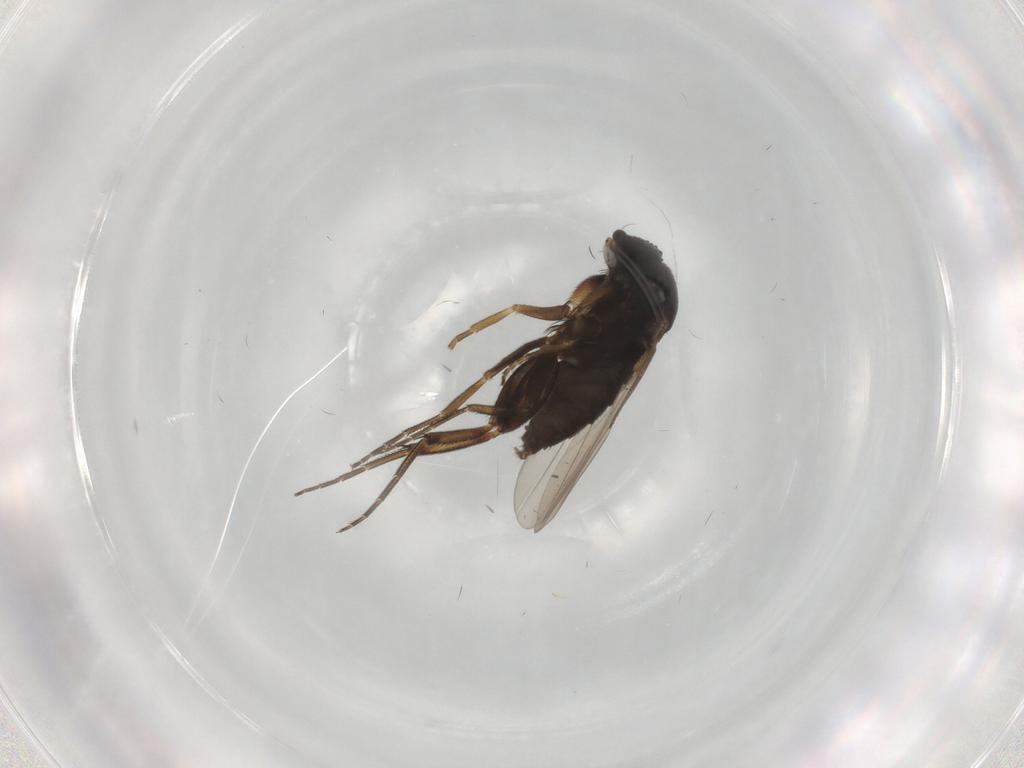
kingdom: Animalia
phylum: Arthropoda
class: Insecta
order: Diptera
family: Phoridae
